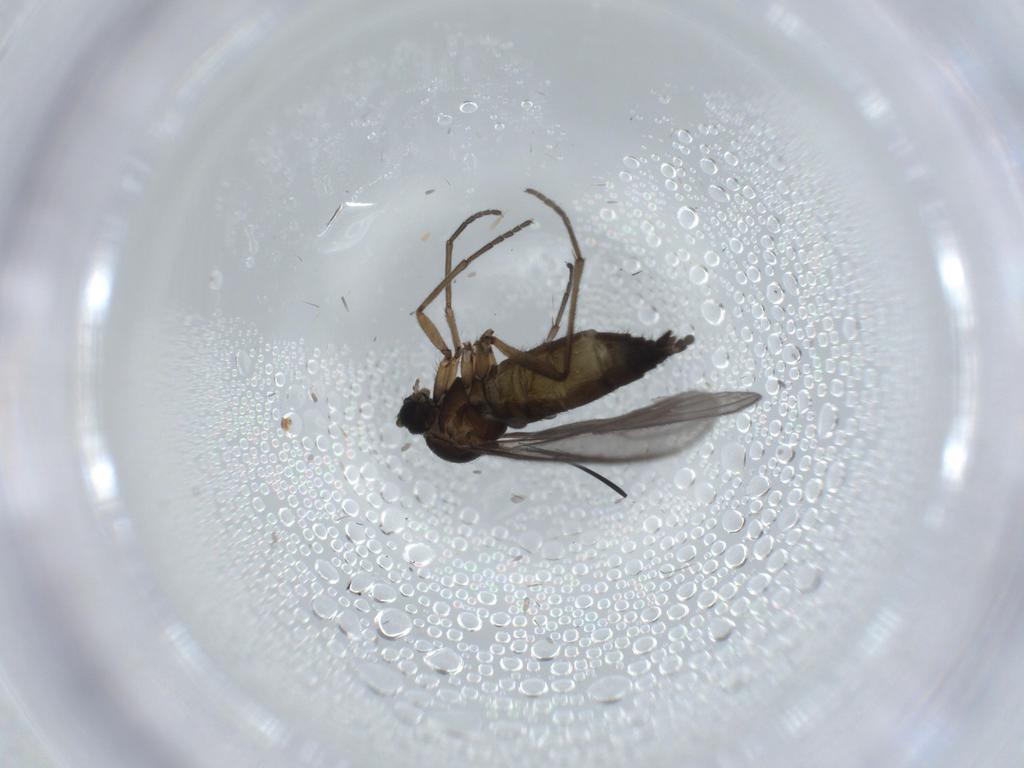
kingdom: Animalia
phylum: Arthropoda
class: Insecta
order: Diptera
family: Sciaridae
